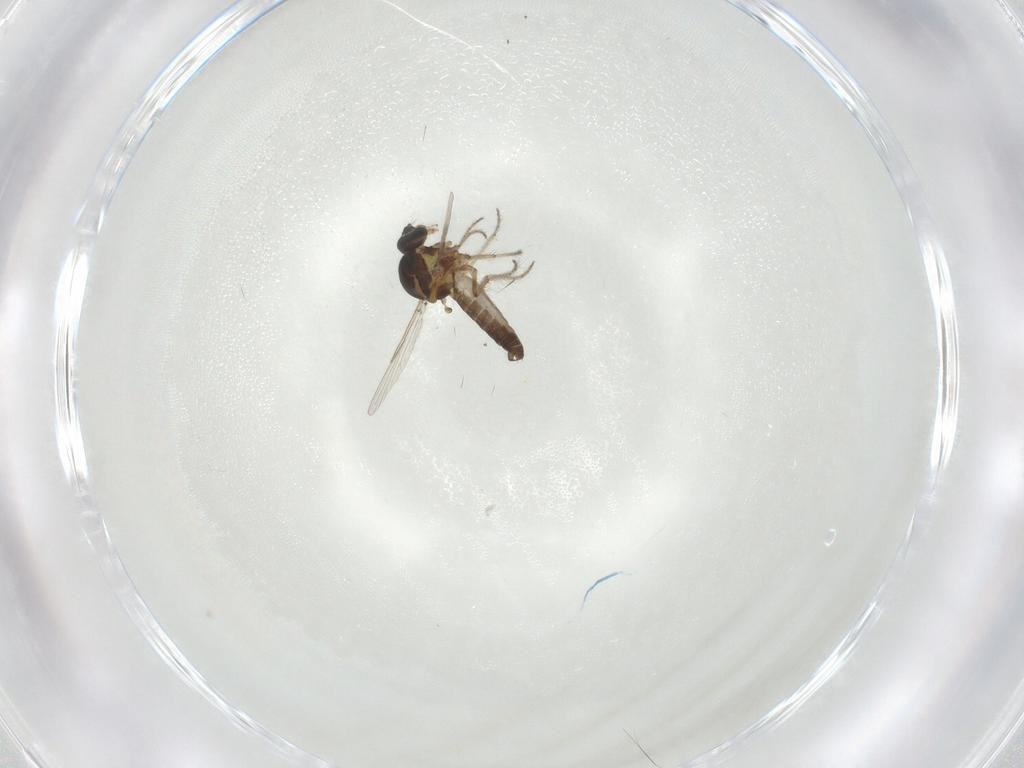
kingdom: Animalia
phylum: Arthropoda
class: Insecta
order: Diptera
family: Ceratopogonidae
